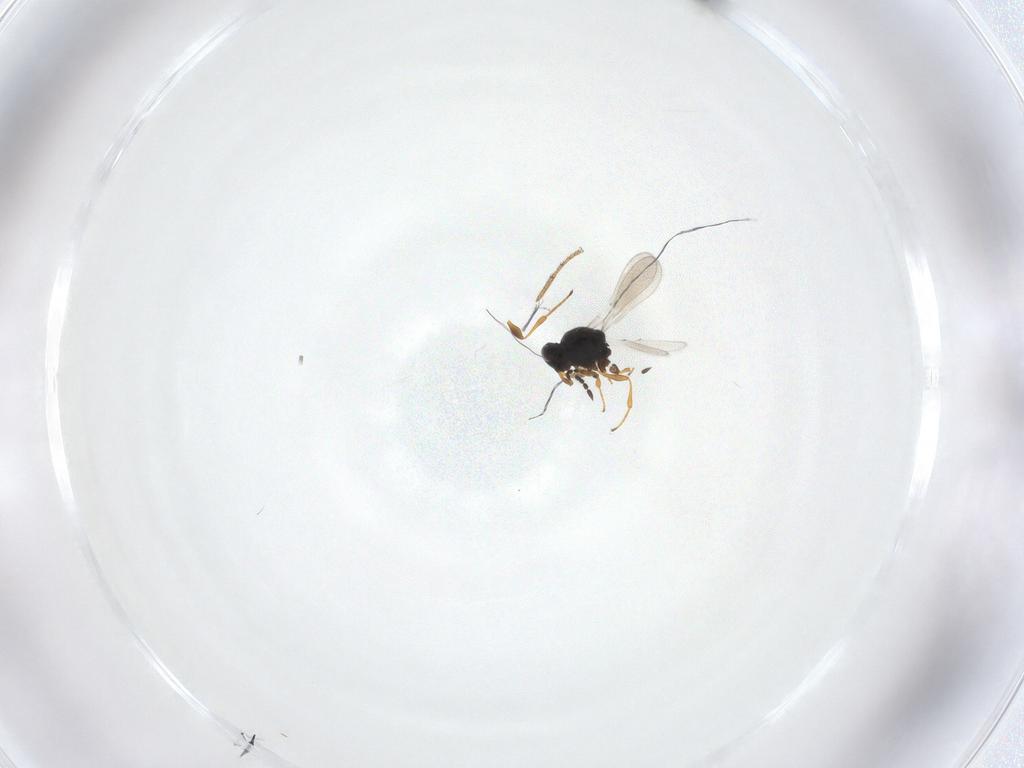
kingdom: Animalia
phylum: Arthropoda
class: Insecta
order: Hymenoptera
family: Platygastridae
